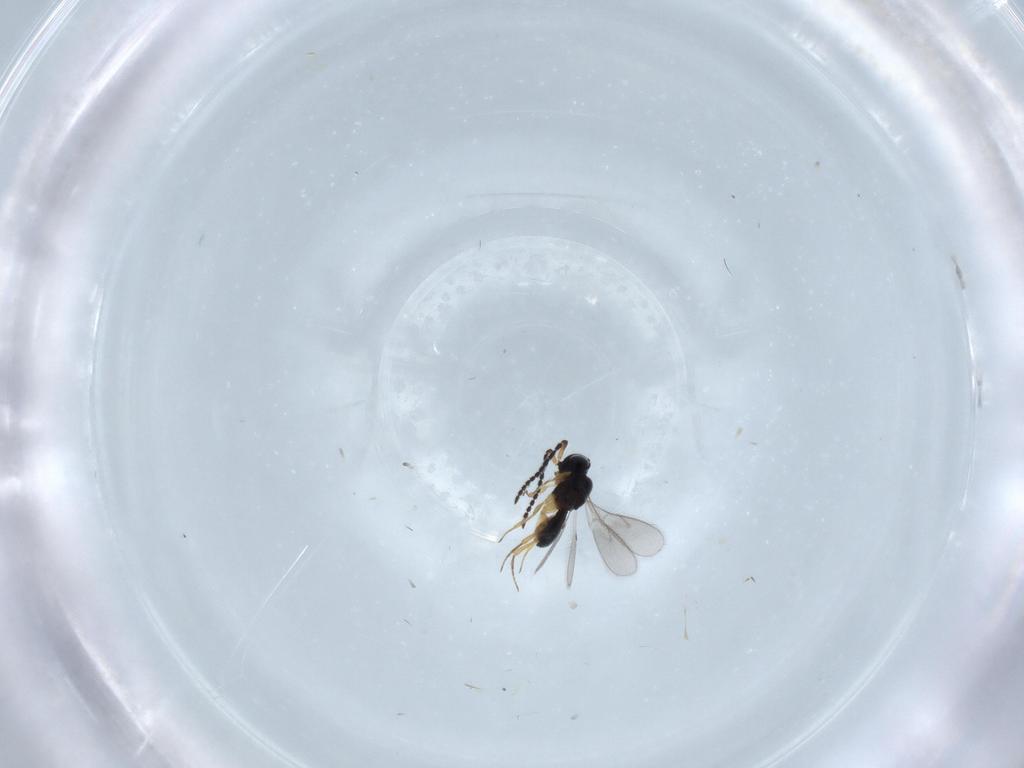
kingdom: Animalia
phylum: Arthropoda
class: Insecta
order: Hymenoptera
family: Scelionidae
